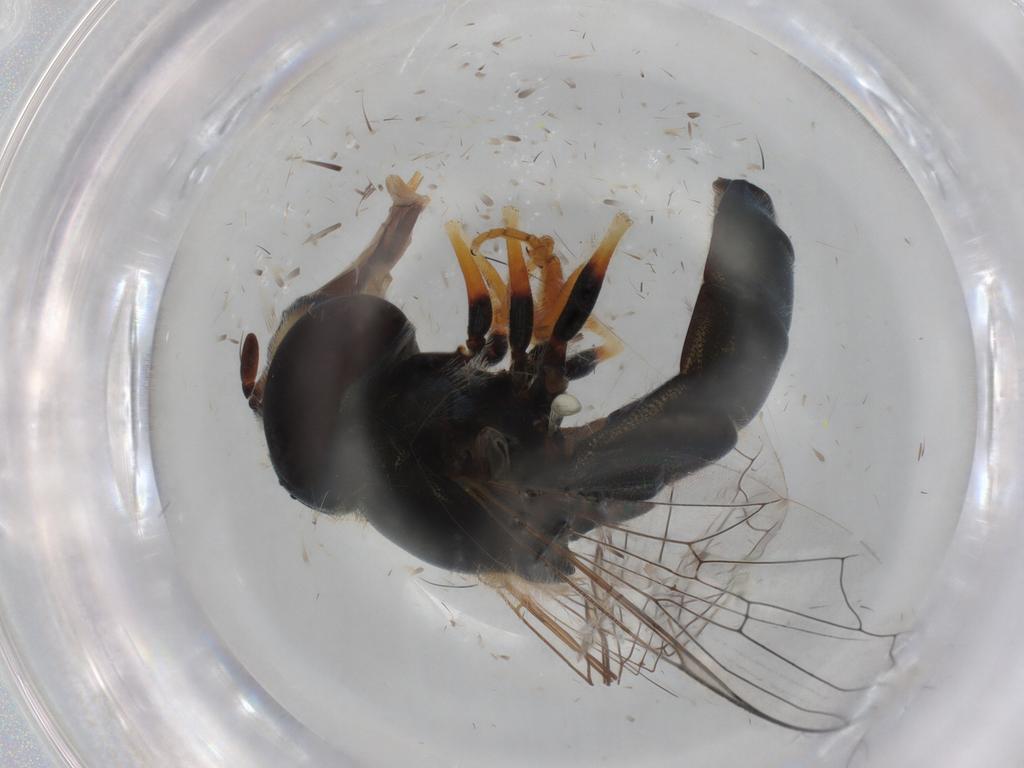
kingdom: Animalia
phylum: Arthropoda
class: Insecta
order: Diptera
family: Syrphidae
